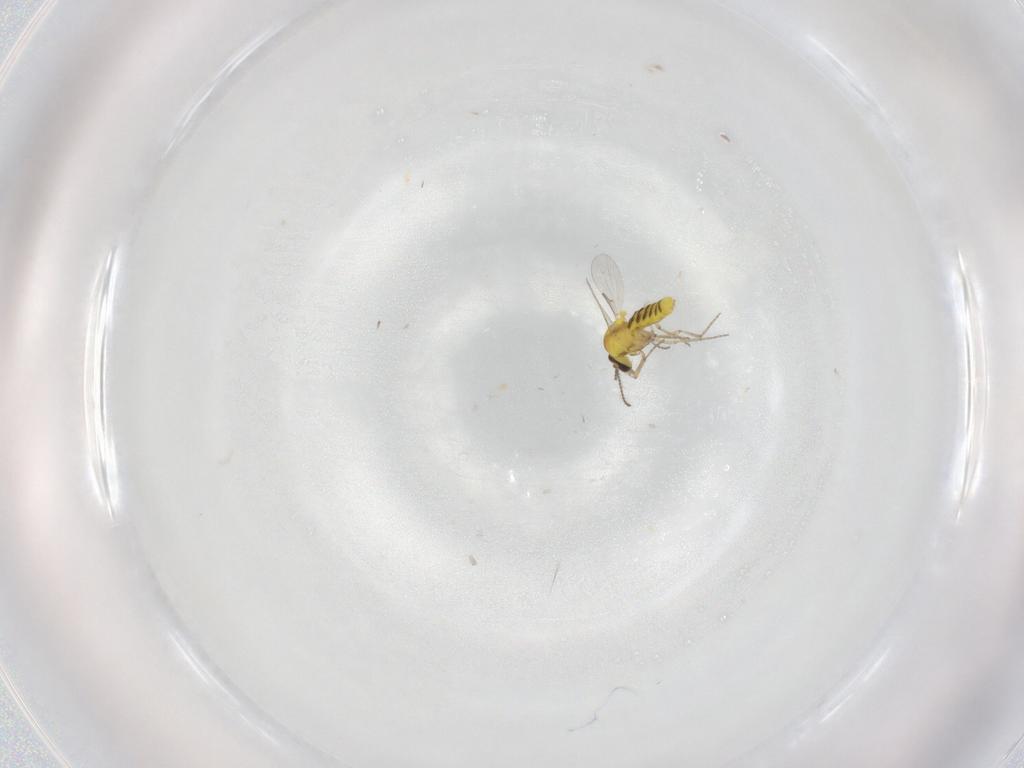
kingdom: Animalia
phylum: Arthropoda
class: Insecta
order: Diptera
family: Ceratopogonidae
